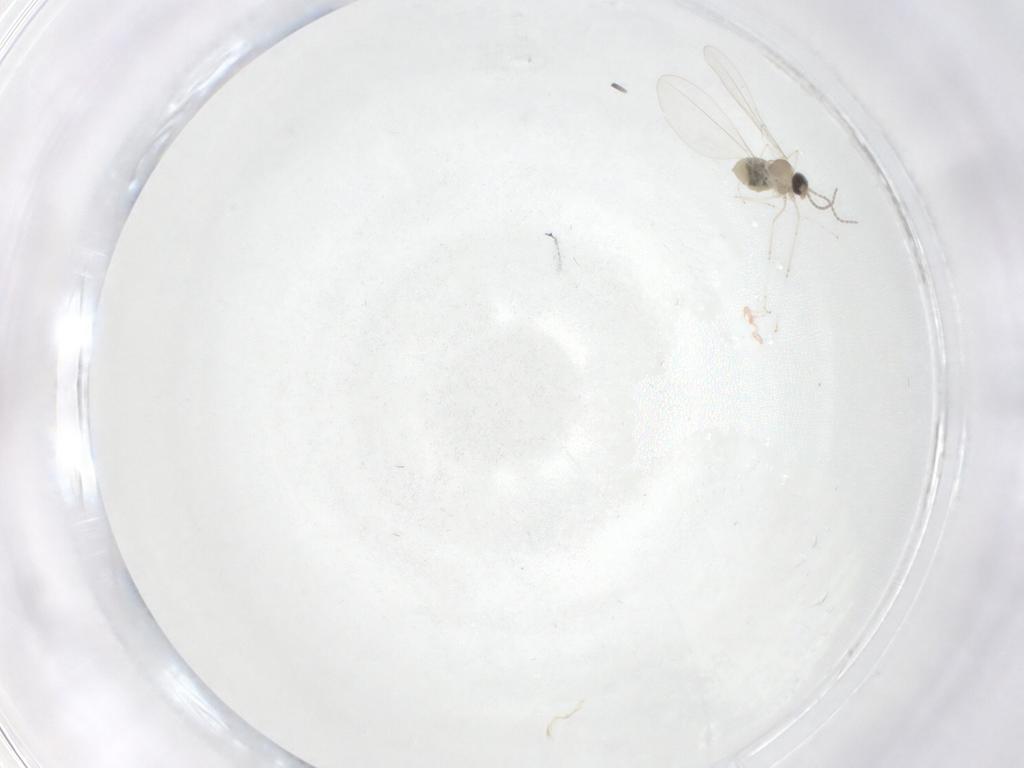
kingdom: Animalia
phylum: Arthropoda
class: Insecta
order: Diptera
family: Cecidomyiidae
